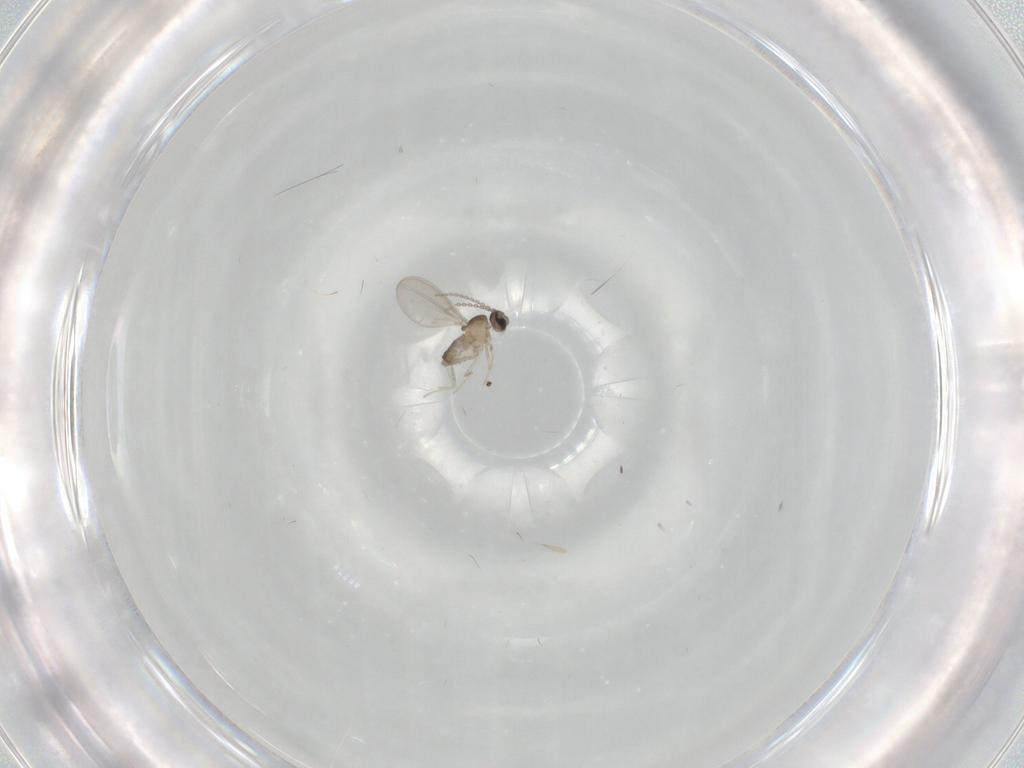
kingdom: Animalia
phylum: Arthropoda
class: Insecta
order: Diptera
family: Cecidomyiidae
